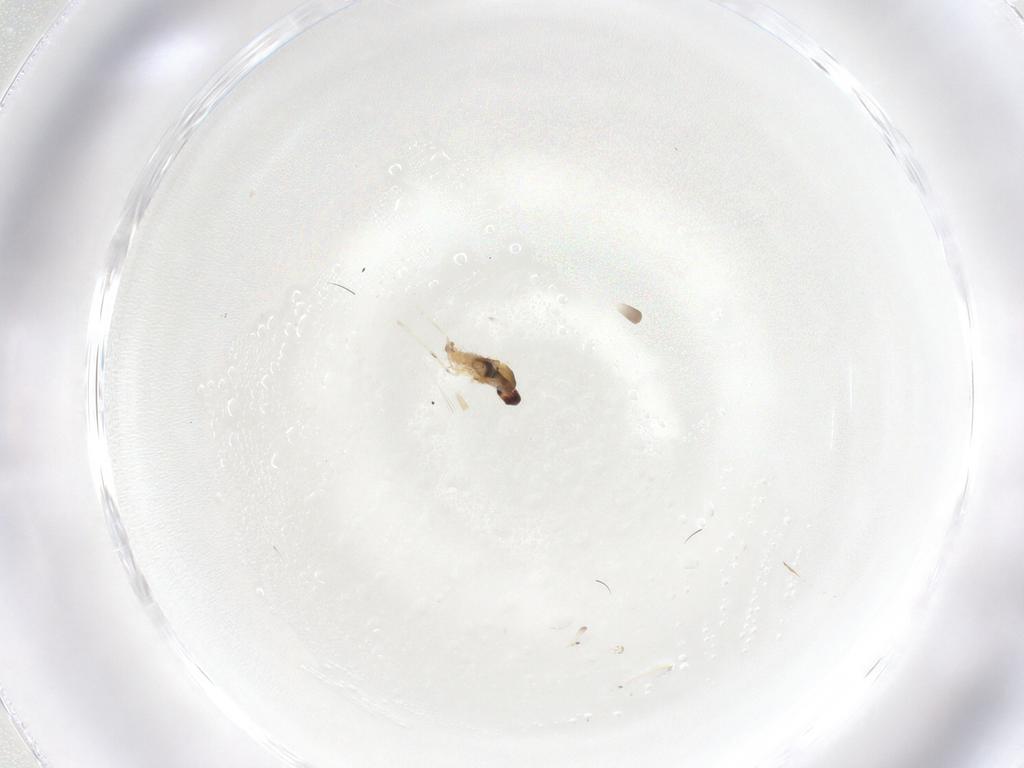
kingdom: Animalia
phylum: Arthropoda
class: Insecta
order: Diptera
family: Cecidomyiidae
